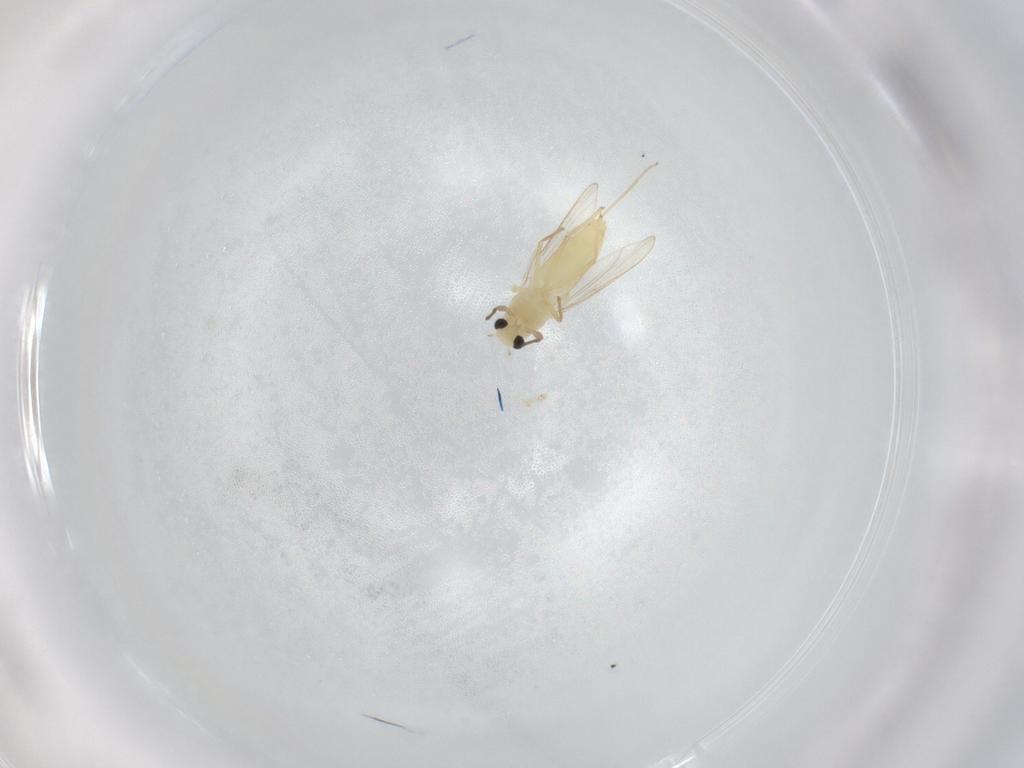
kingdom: Animalia
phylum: Arthropoda
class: Insecta
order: Diptera
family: Chironomidae
